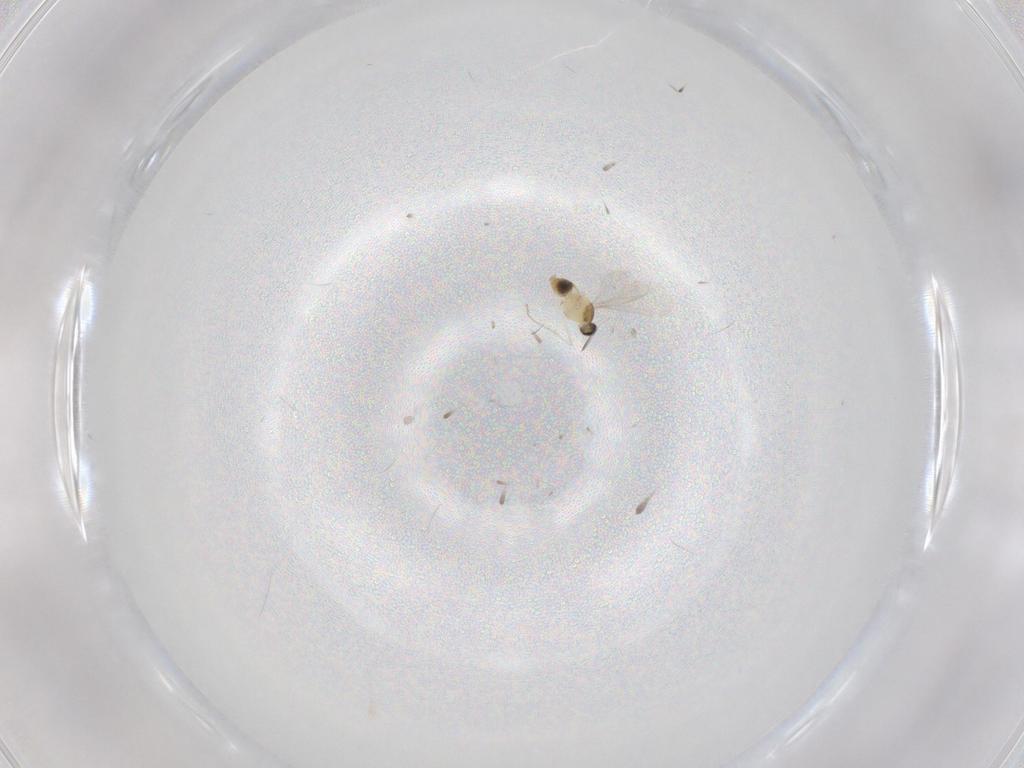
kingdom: Animalia
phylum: Arthropoda
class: Insecta
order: Diptera
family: Cecidomyiidae
